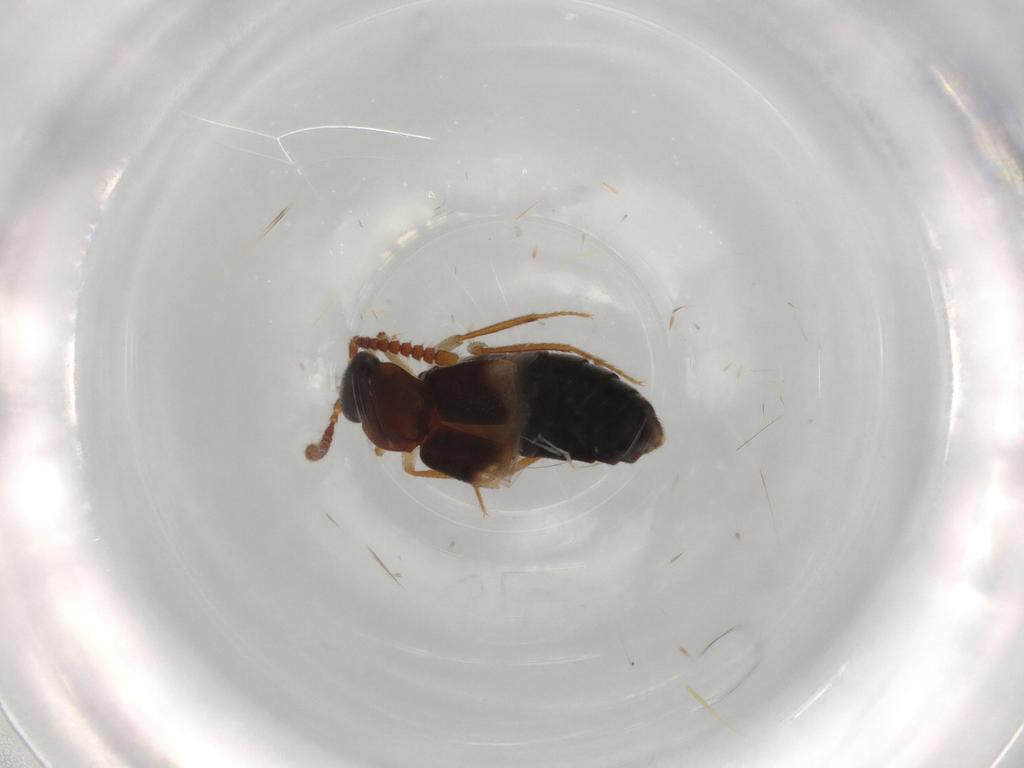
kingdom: Animalia
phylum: Arthropoda
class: Insecta
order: Coleoptera
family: Staphylinidae
